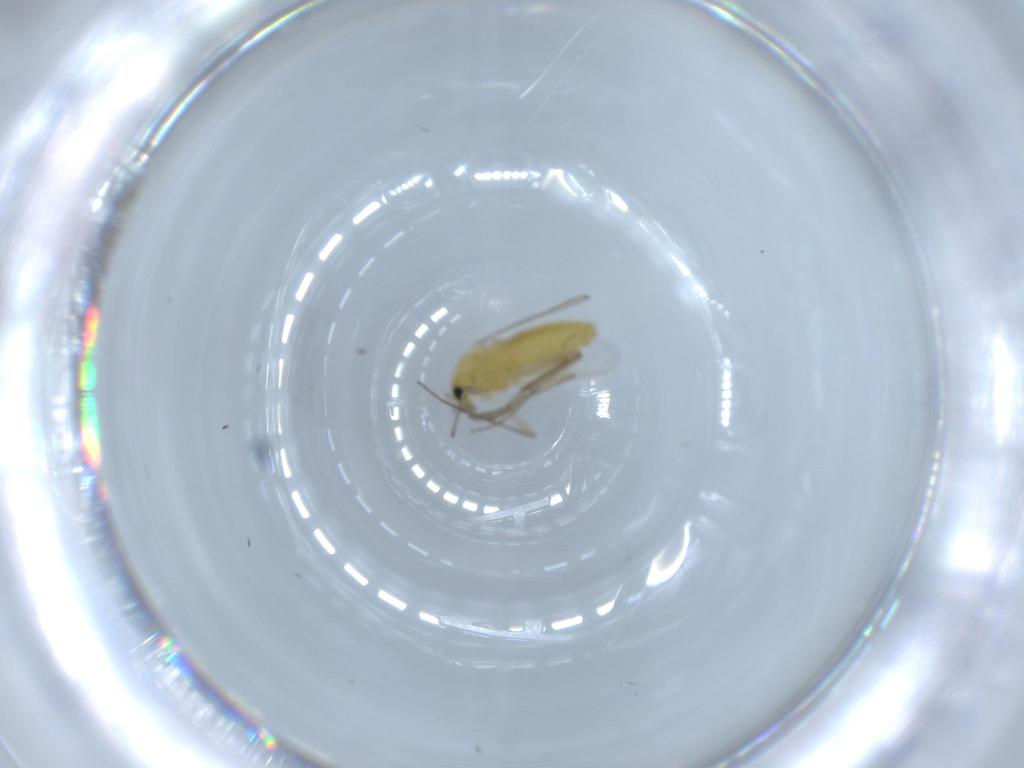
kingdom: Animalia
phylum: Arthropoda
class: Insecta
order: Diptera
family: Chironomidae
